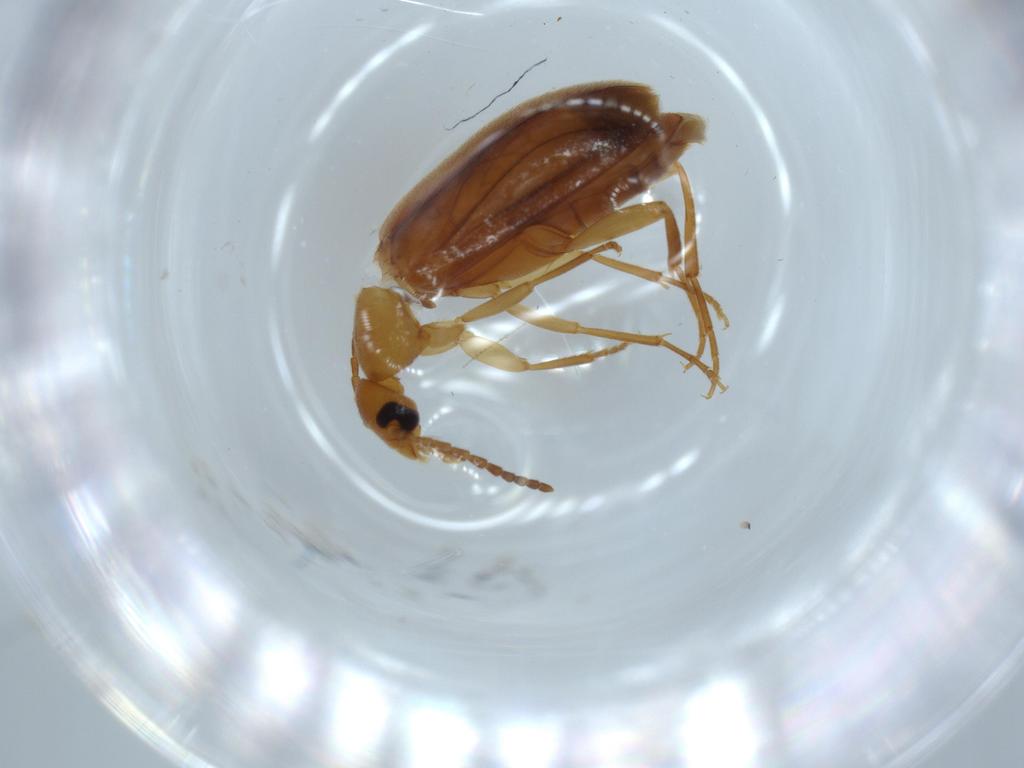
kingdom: Animalia
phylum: Arthropoda
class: Insecta
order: Coleoptera
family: Scraptiidae
